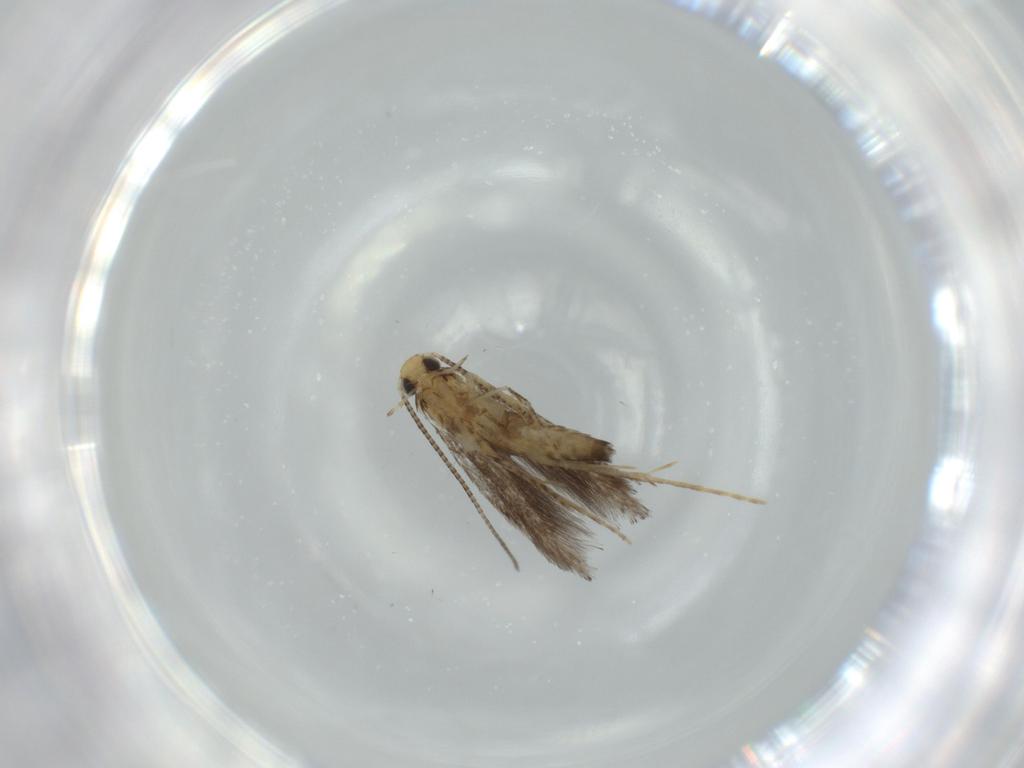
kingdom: Animalia
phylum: Arthropoda
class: Insecta
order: Lepidoptera
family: Gracillariidae
